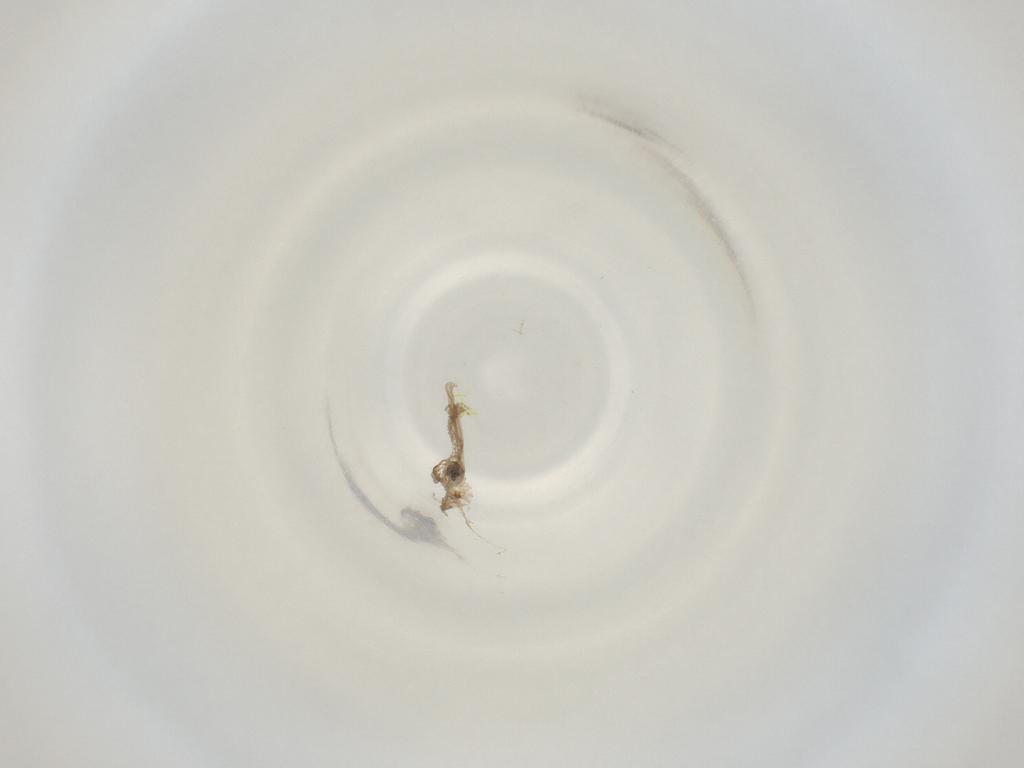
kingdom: Animalia
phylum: Arthropoda
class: Insecta
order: Diptera
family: Cecidomyiidae
